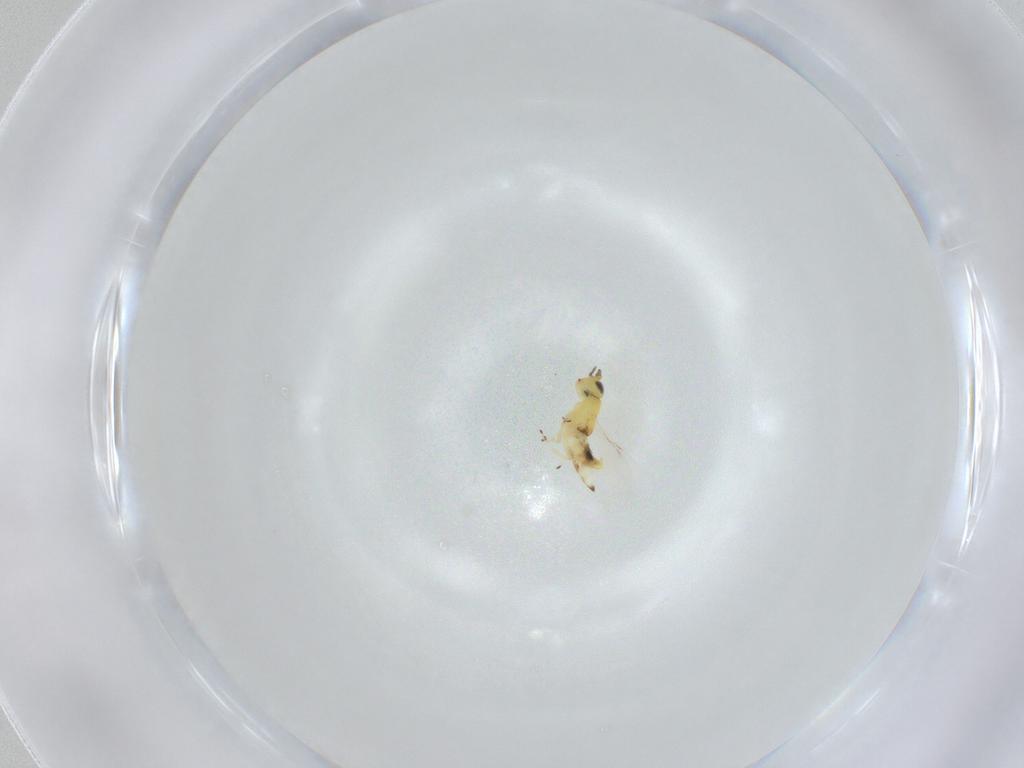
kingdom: Animalia
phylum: Arthropoda
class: Insecta
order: Hymenoptera
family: Encyrtidae
